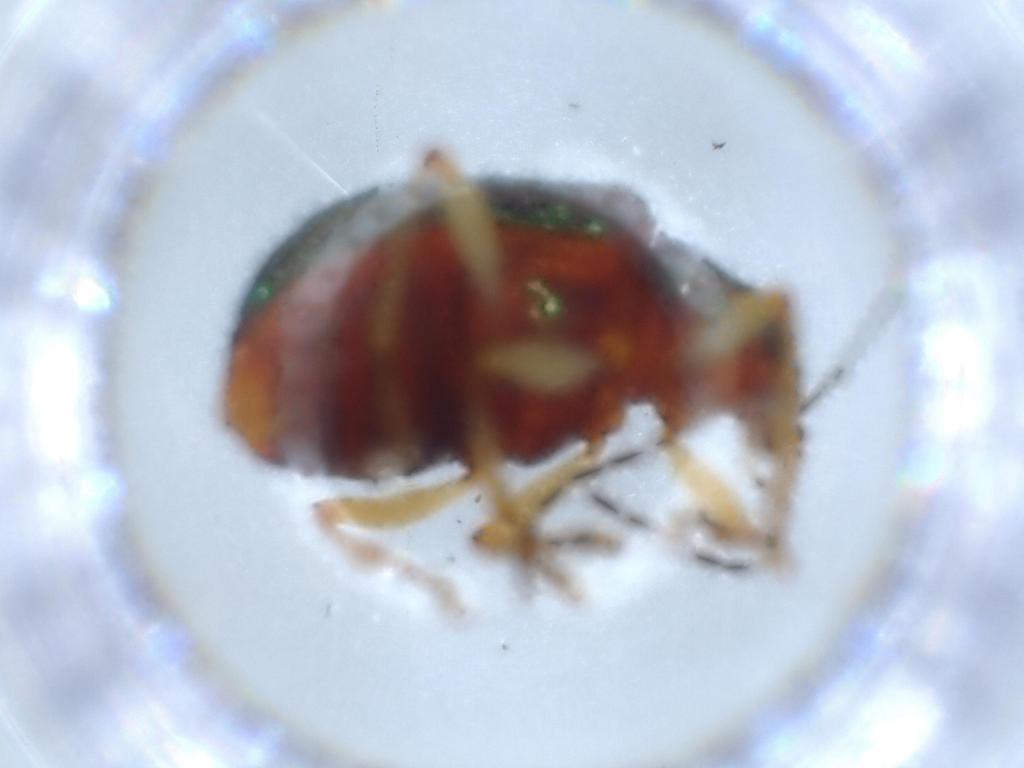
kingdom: Animalia
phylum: Arthropoda
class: Insecta
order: Coleoptera
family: Chrysomelidae
